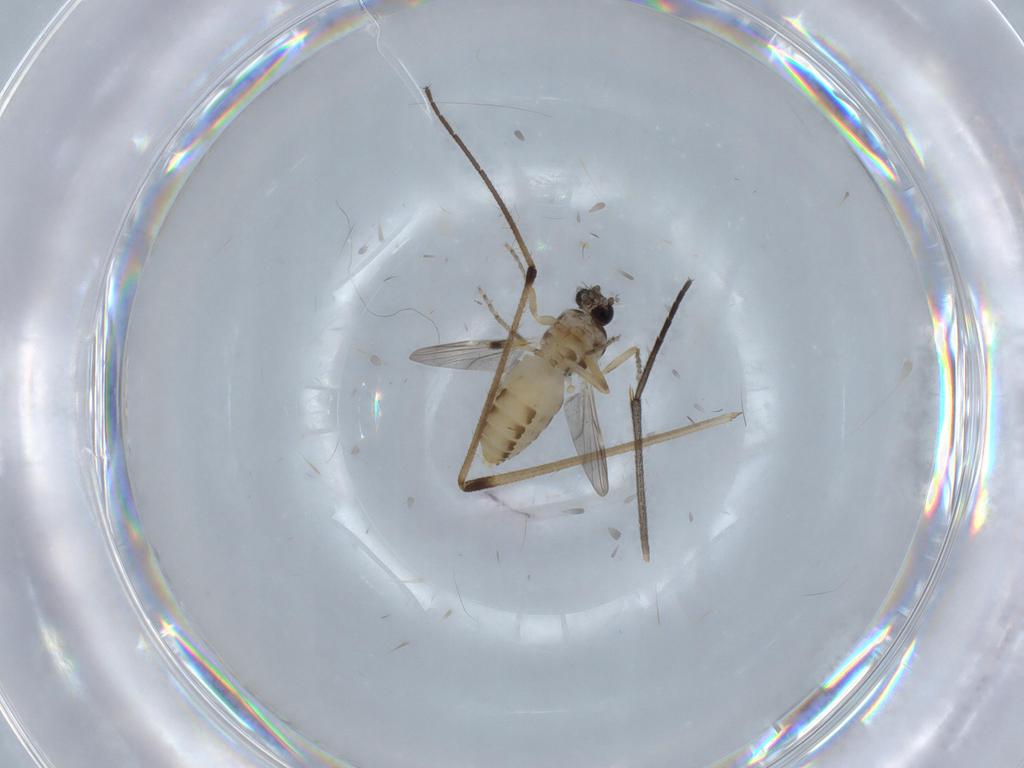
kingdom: Animalia
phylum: Arthropoda
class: Insecta
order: Diptera
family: Ceratopogonidae
